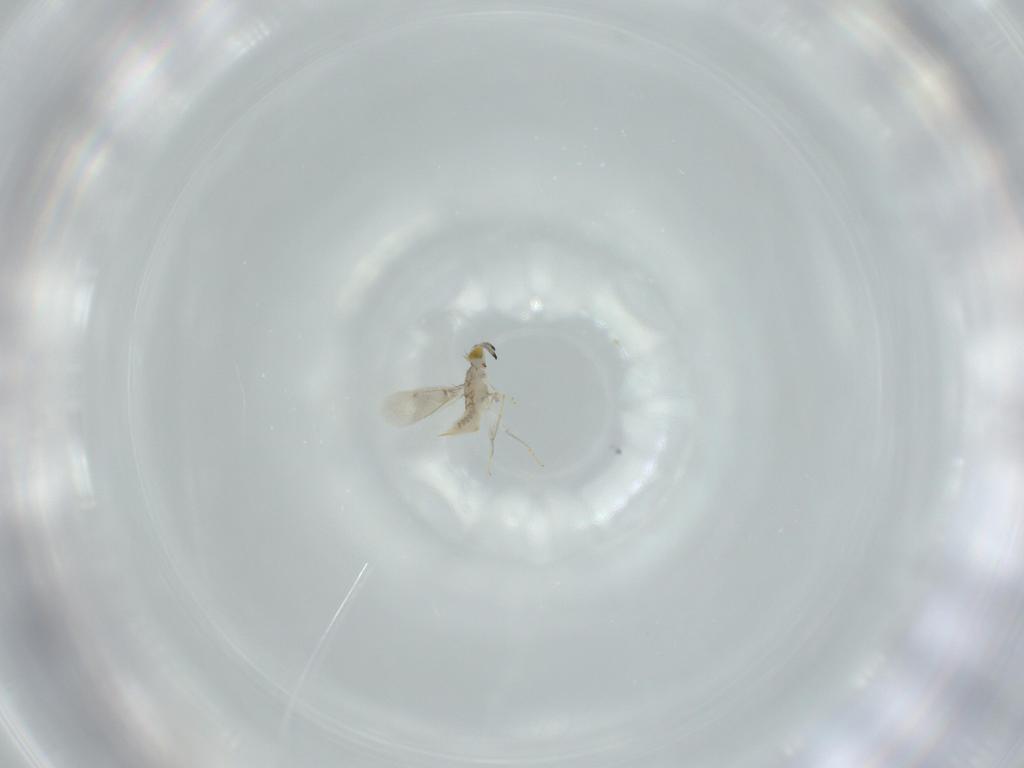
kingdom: Animalia
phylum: Arthropoda
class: Insecta
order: Hymenoptera
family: Aphelinidae
